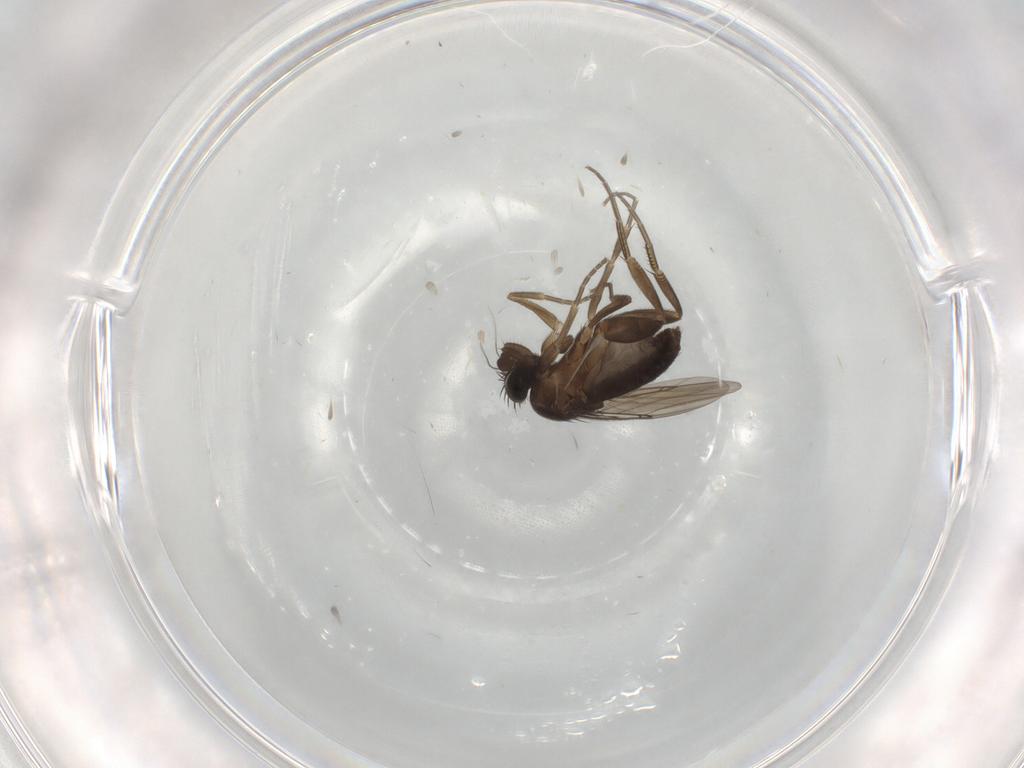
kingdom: Animalia
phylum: Arthropoda
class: Insecta
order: Diptera
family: Phoridae
